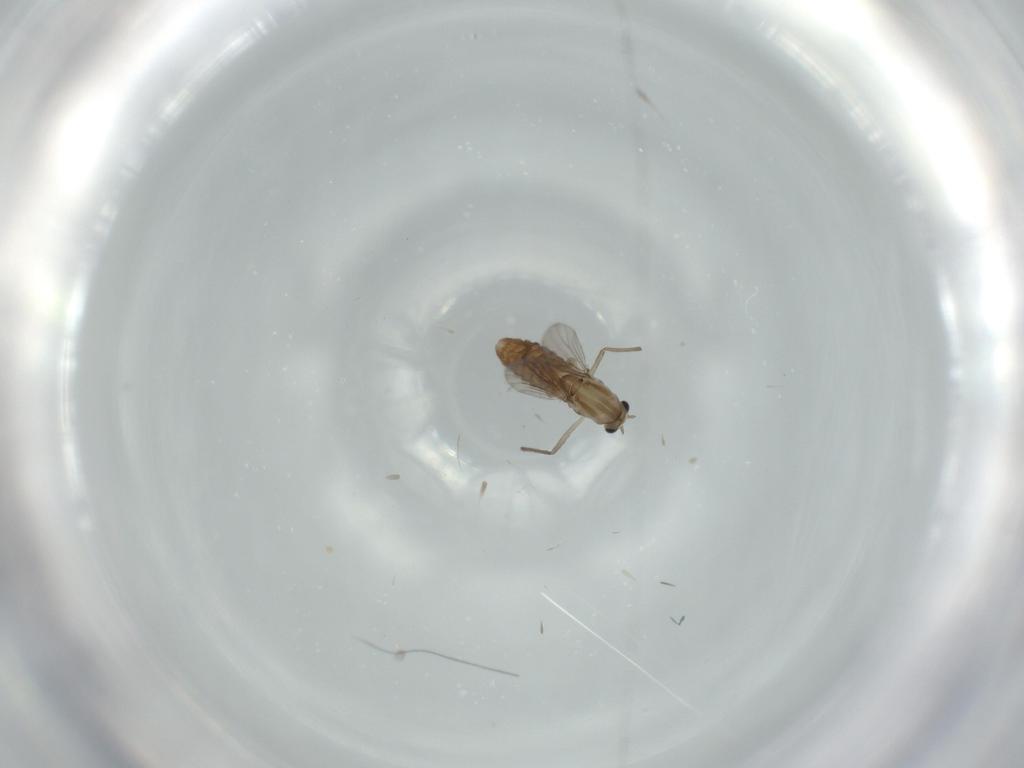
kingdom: Animalia
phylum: Arthropoda
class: Insecta
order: Diptera
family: Chironomidae
